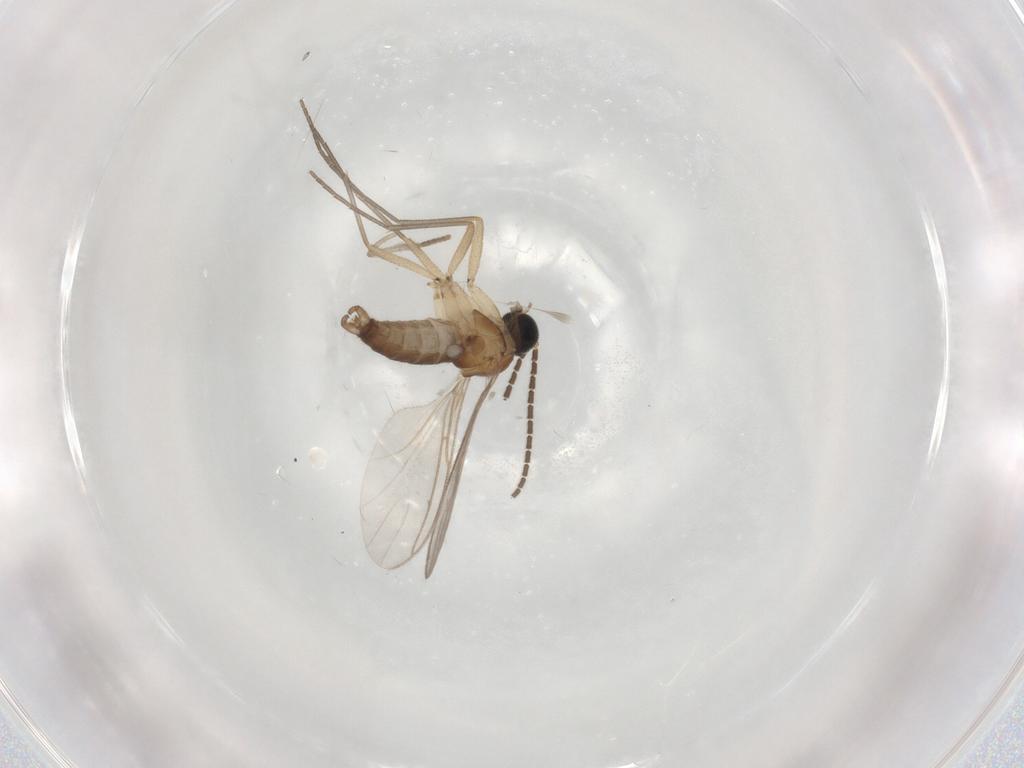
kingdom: Animalia
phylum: Arthropoda
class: Insecta
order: Diptera
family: Sciaridae
